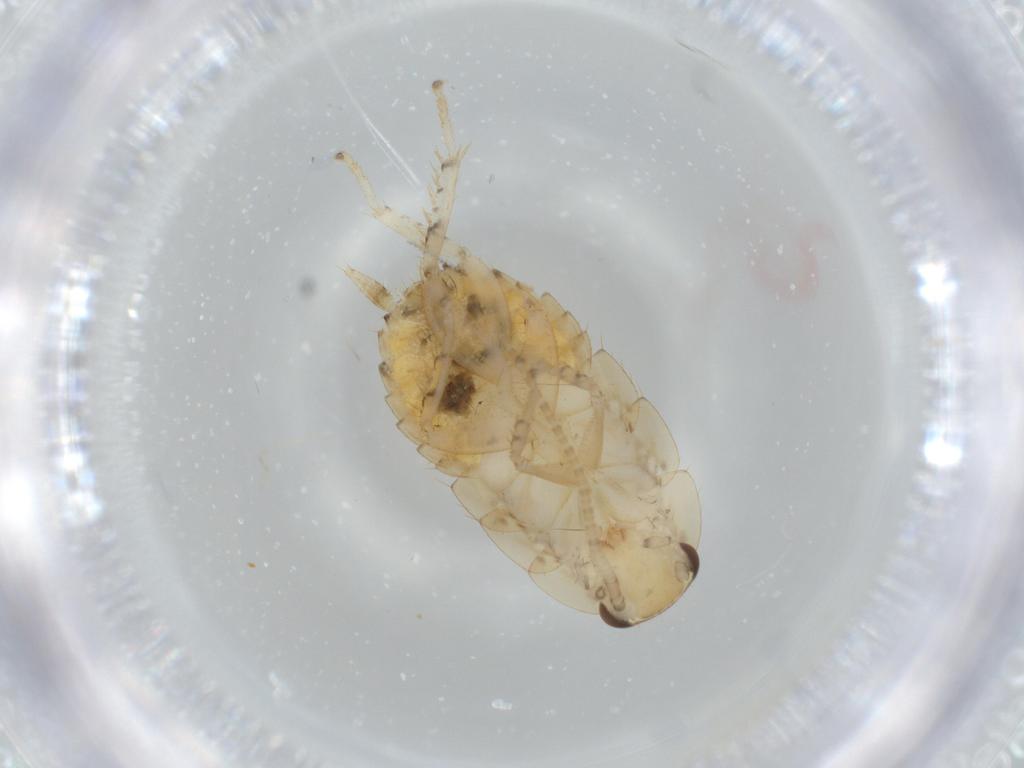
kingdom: Animalia
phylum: Arthropoda
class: Insecta
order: Blattodea
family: Ectobiidae
